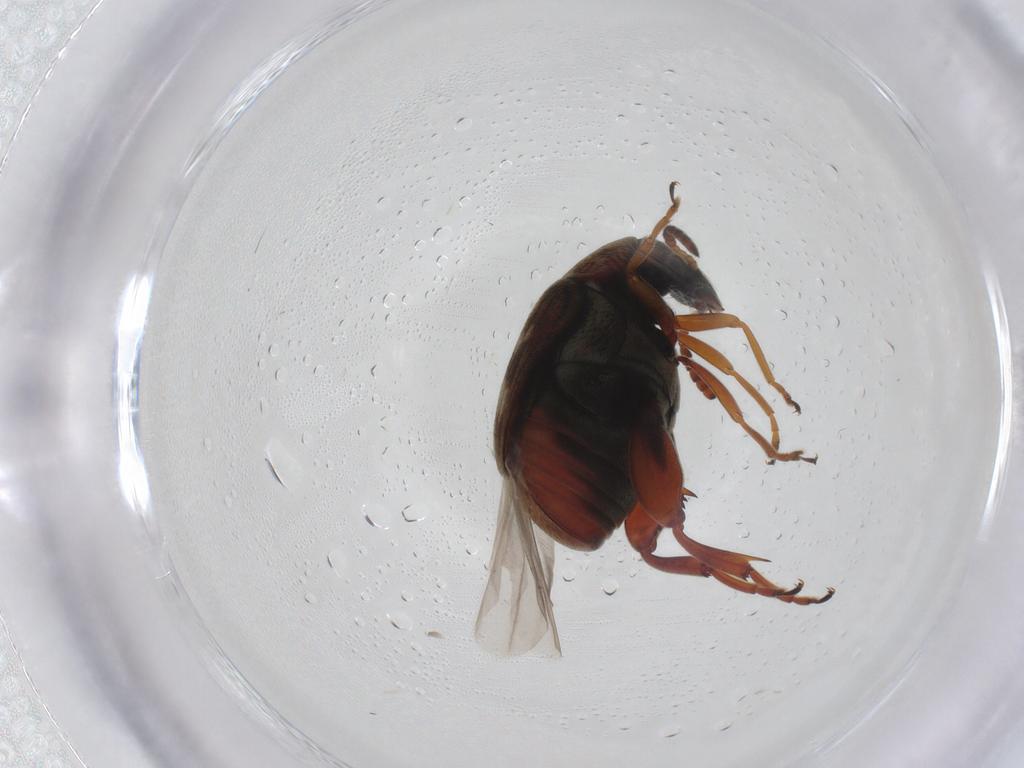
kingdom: Animalia
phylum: Arthropoda
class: Insecta
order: Coleoptera
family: Chrysomelidae
